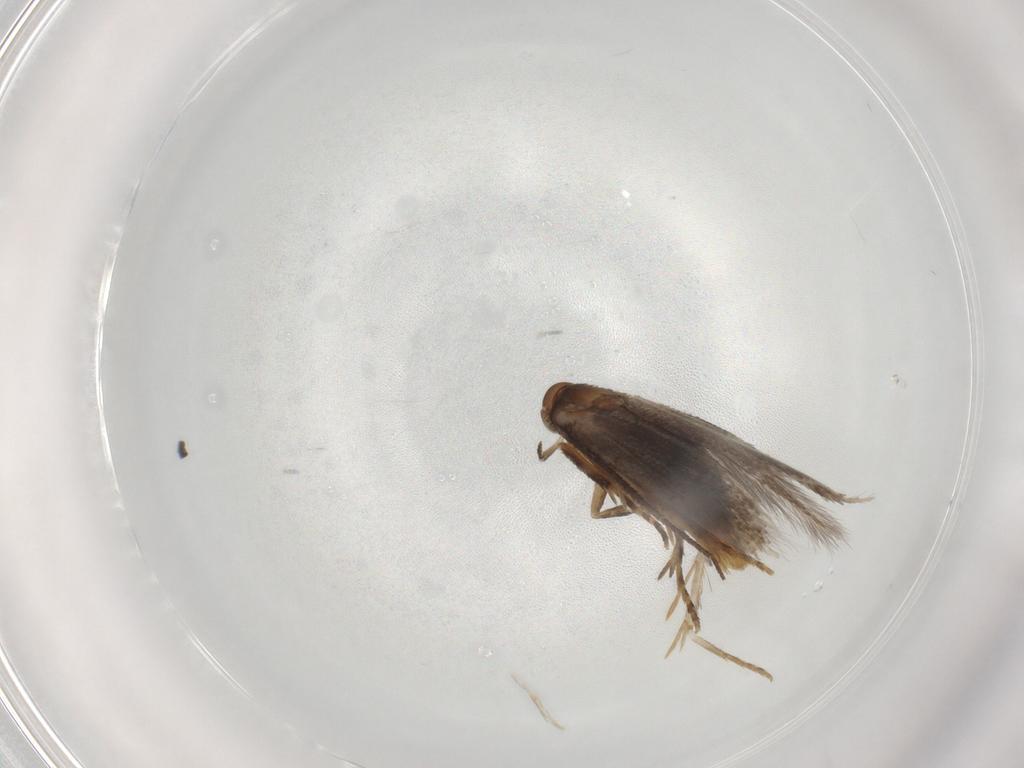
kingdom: Animalia
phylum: Arthropoda
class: Insecta
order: Lepidoptera
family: Elachistidae
